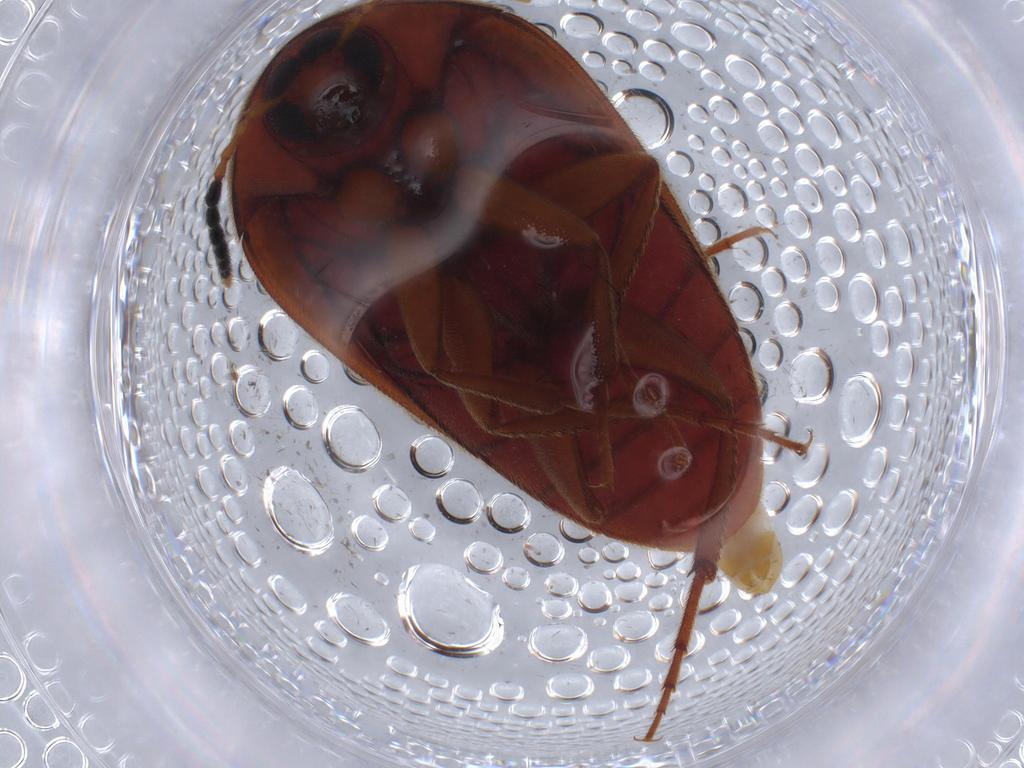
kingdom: Animalia
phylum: Arthropoda
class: Insecta
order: Coleoptera
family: Curculionidae
